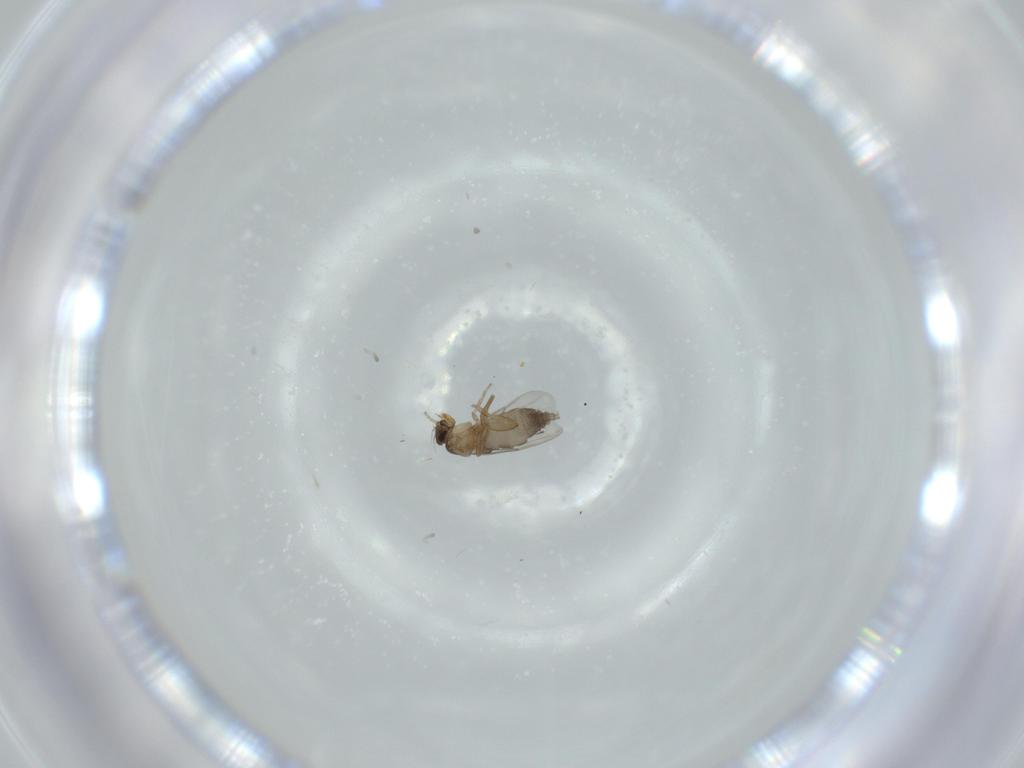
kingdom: Animalia
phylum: Arthropoda
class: Insecta
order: Diptera
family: Phoridae
